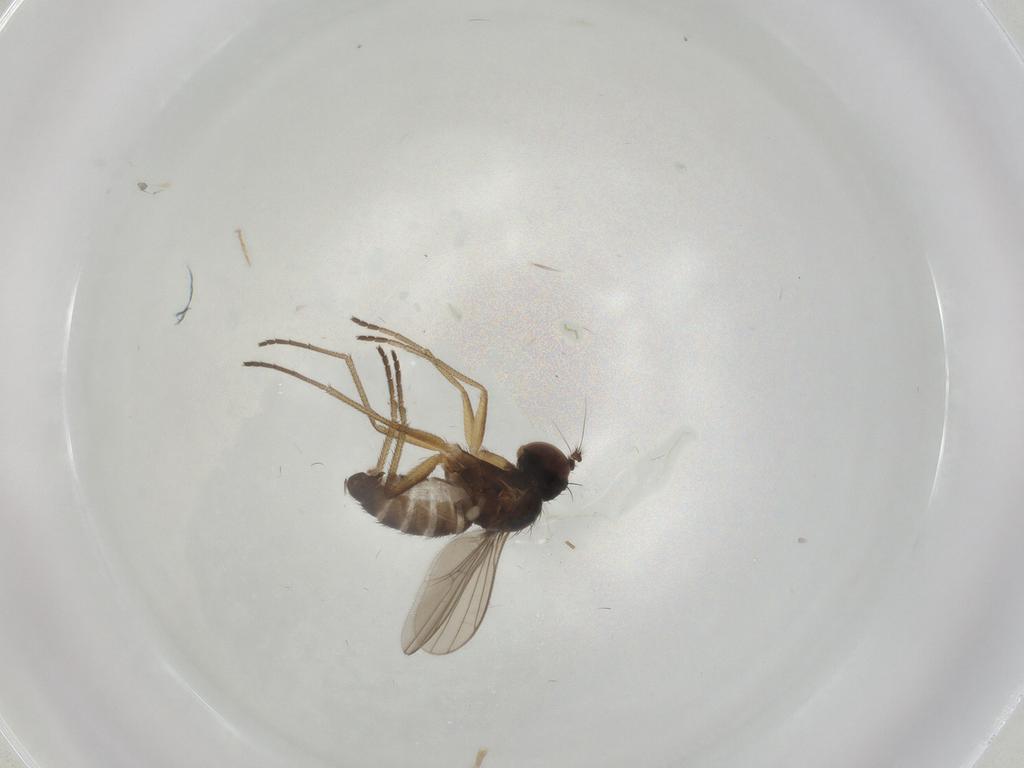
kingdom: Animalia
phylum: Arthropoda
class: Insecta
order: Diptera
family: Dolichopodidae
